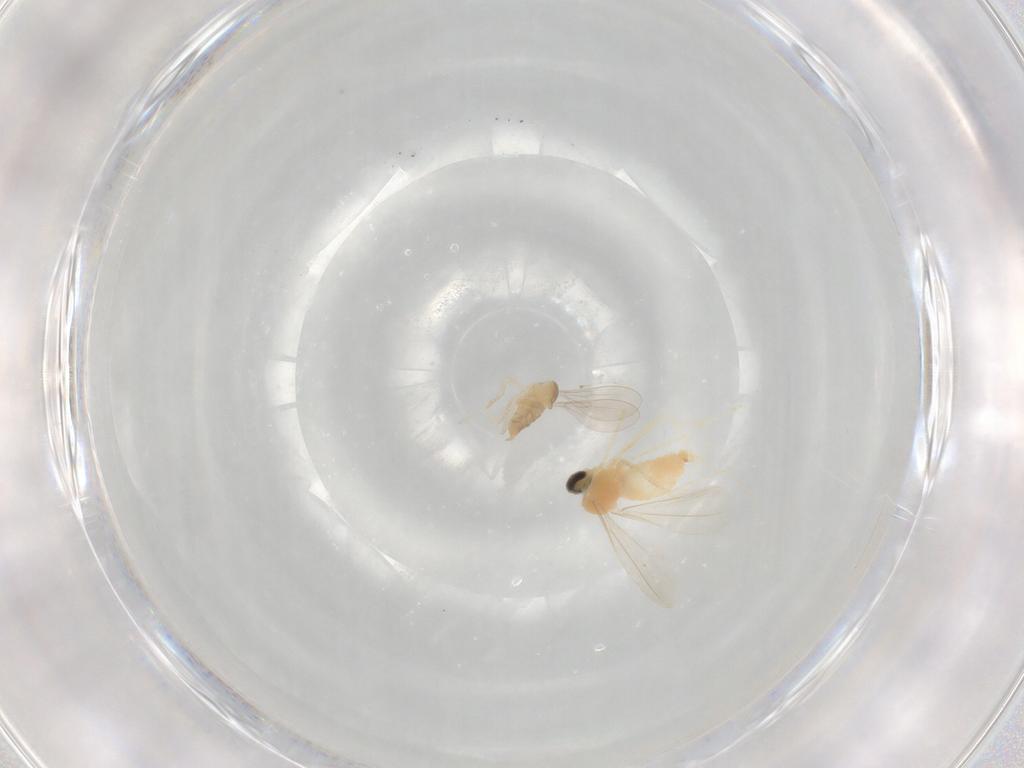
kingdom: Animalia
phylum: Arthropoda
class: Insecta
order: Diptera
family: Cecidomyiidae
